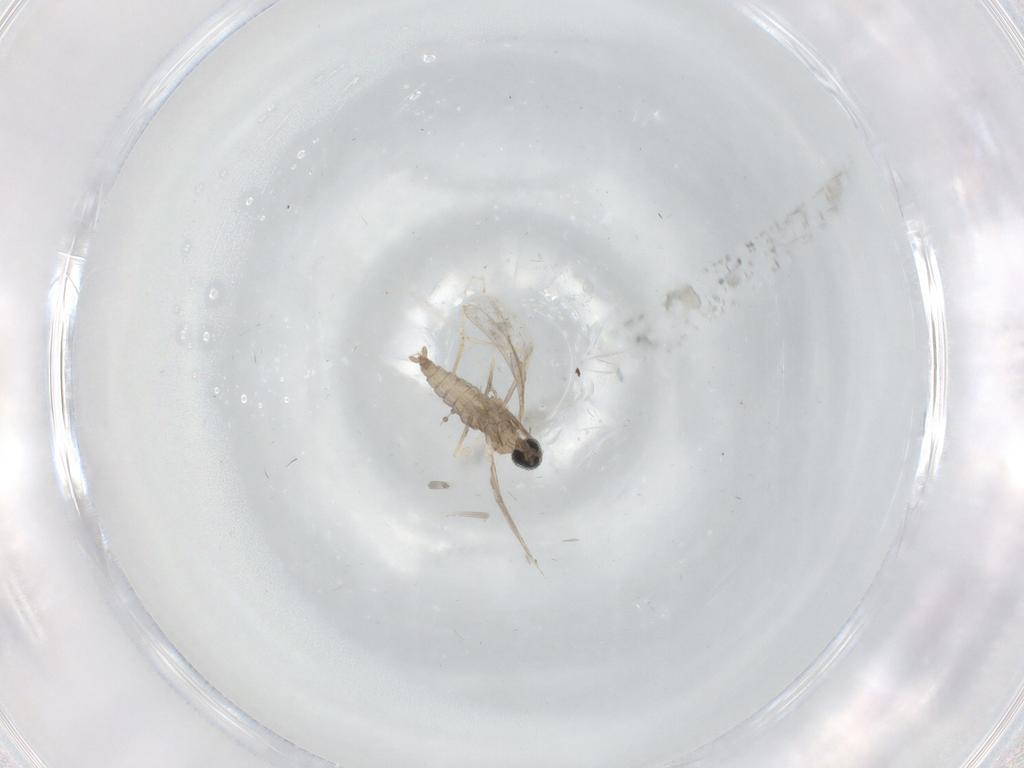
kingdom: Animalia
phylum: Arthropoda
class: Insecta
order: Diptera
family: Cecidomyiidae
